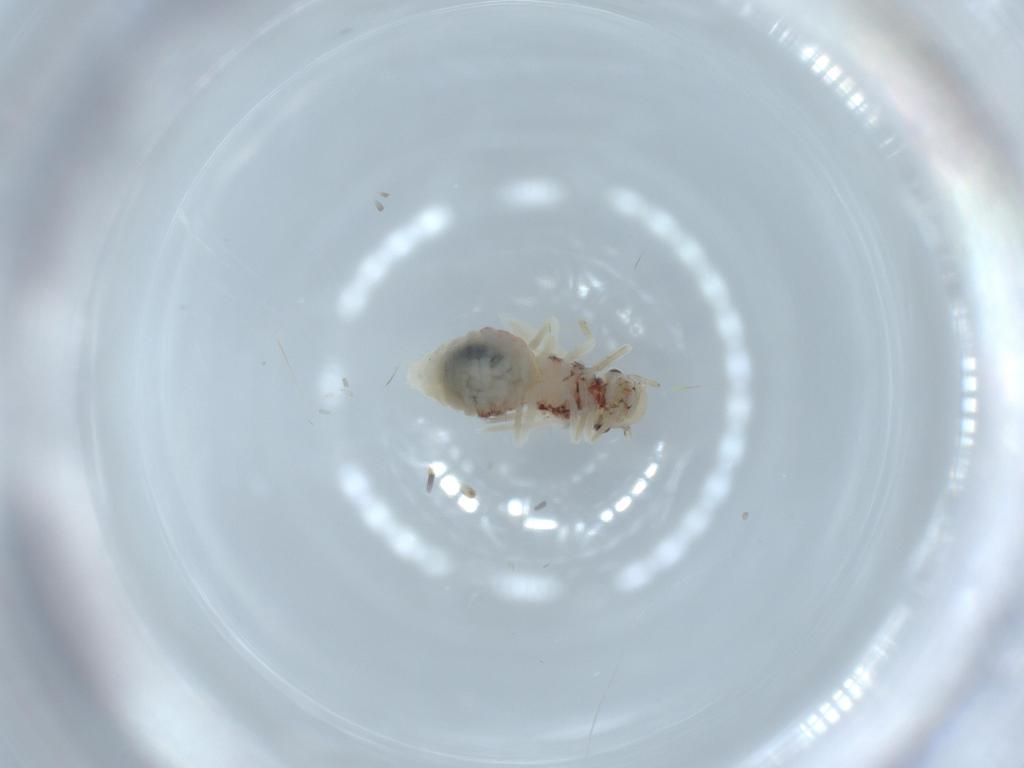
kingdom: Animalia
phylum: Arthropoda
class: Insecta
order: Psocodea
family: Caeciliusidae
